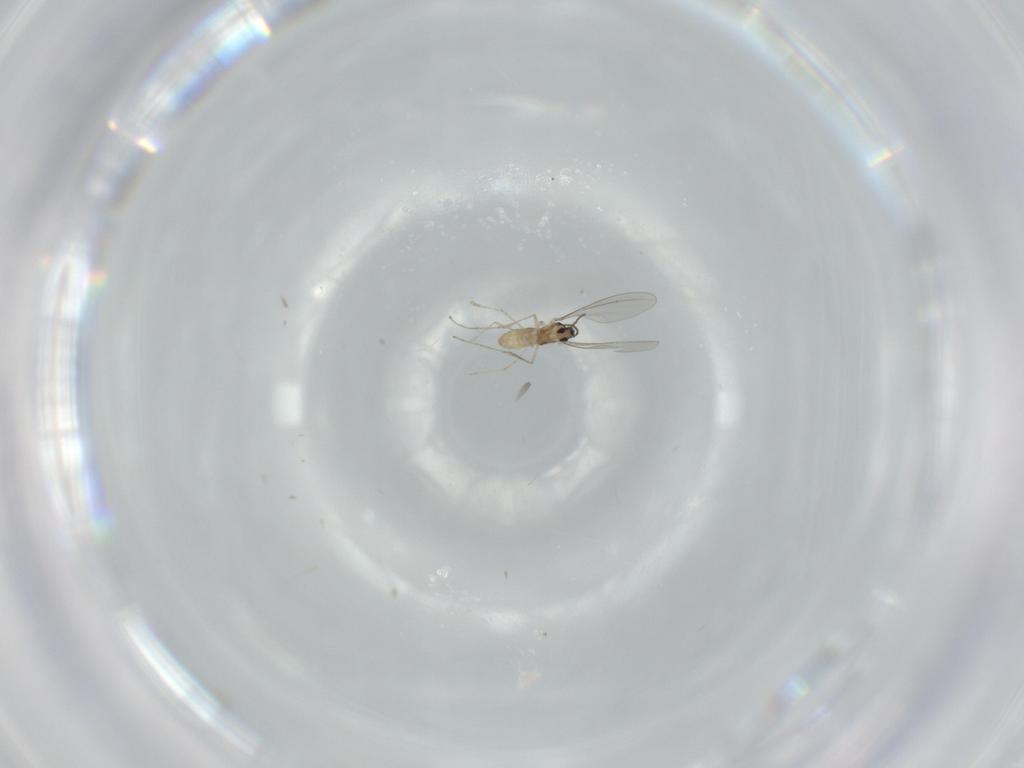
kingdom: Animalia
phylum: Arthropoda
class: Insecta
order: Diptera
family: Cecidomyiidae
